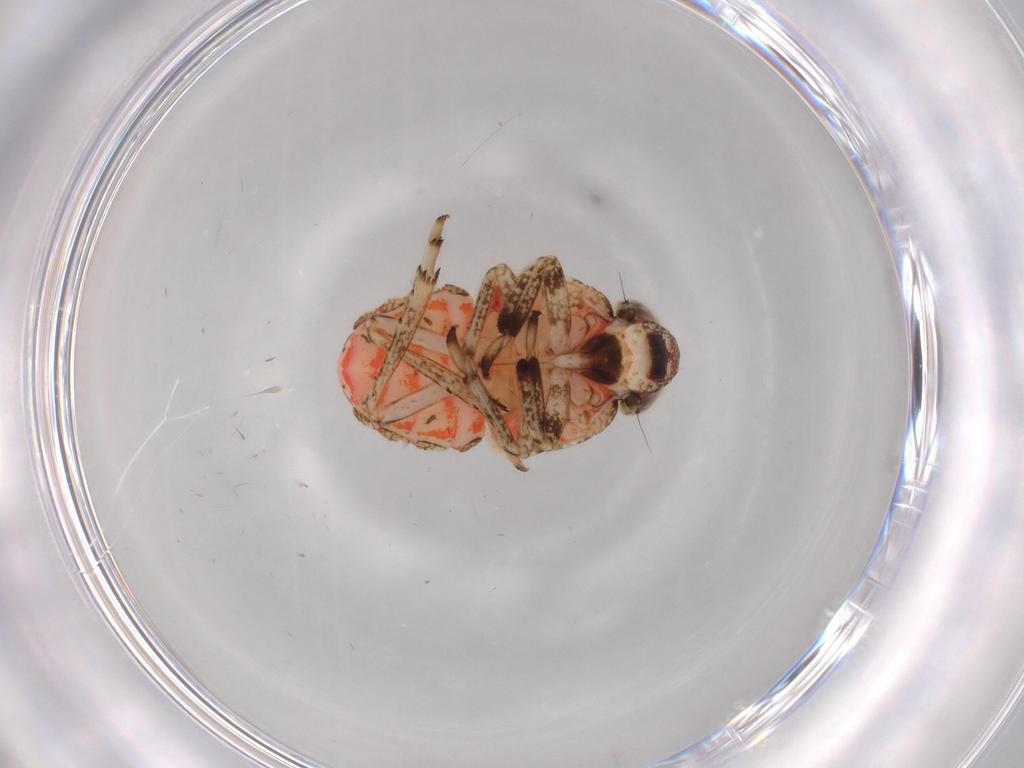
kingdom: Animalia
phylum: Arthropoda
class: Insecta
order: Hemiptera
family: Issidae
